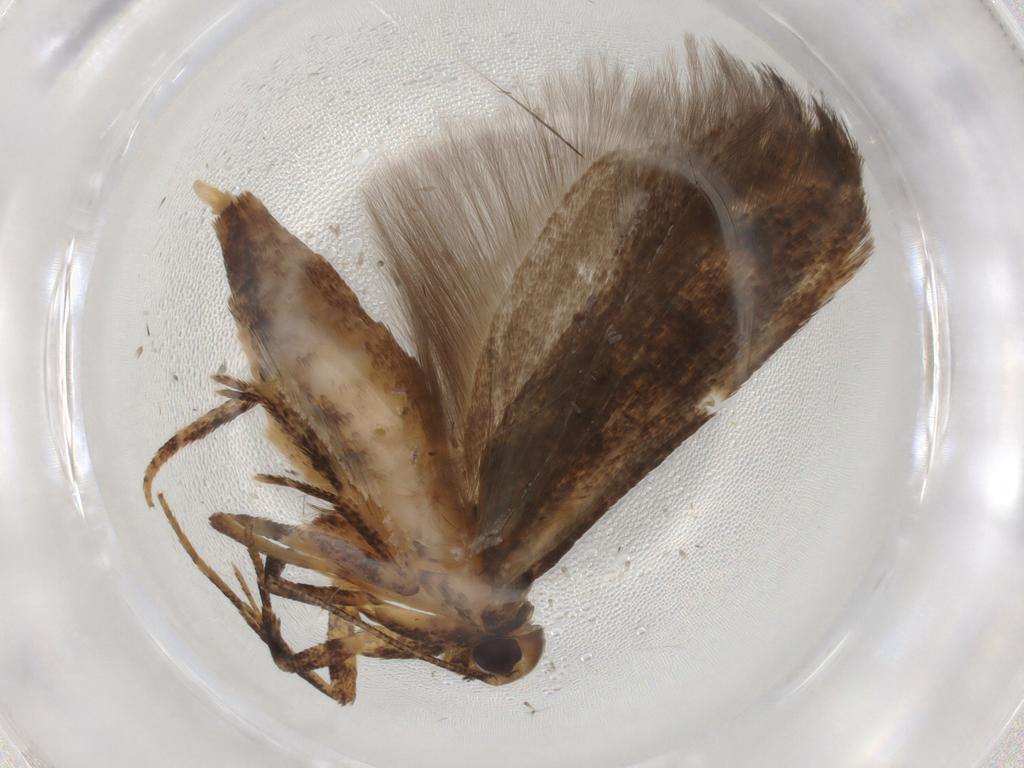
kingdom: Animalia
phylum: Arthropoda
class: Insecta
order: Lepidoptera
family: Gelechiidae
